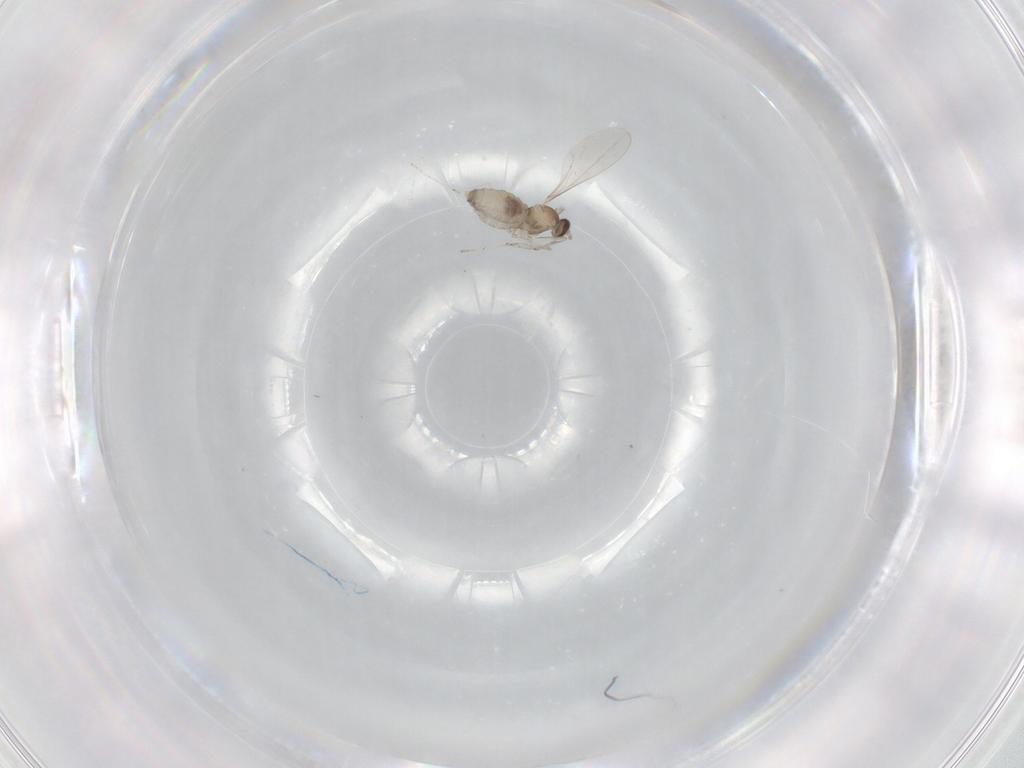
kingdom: Animalia
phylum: Arthropoda
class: Insecta
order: Diptera
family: Cecidomyiidae
